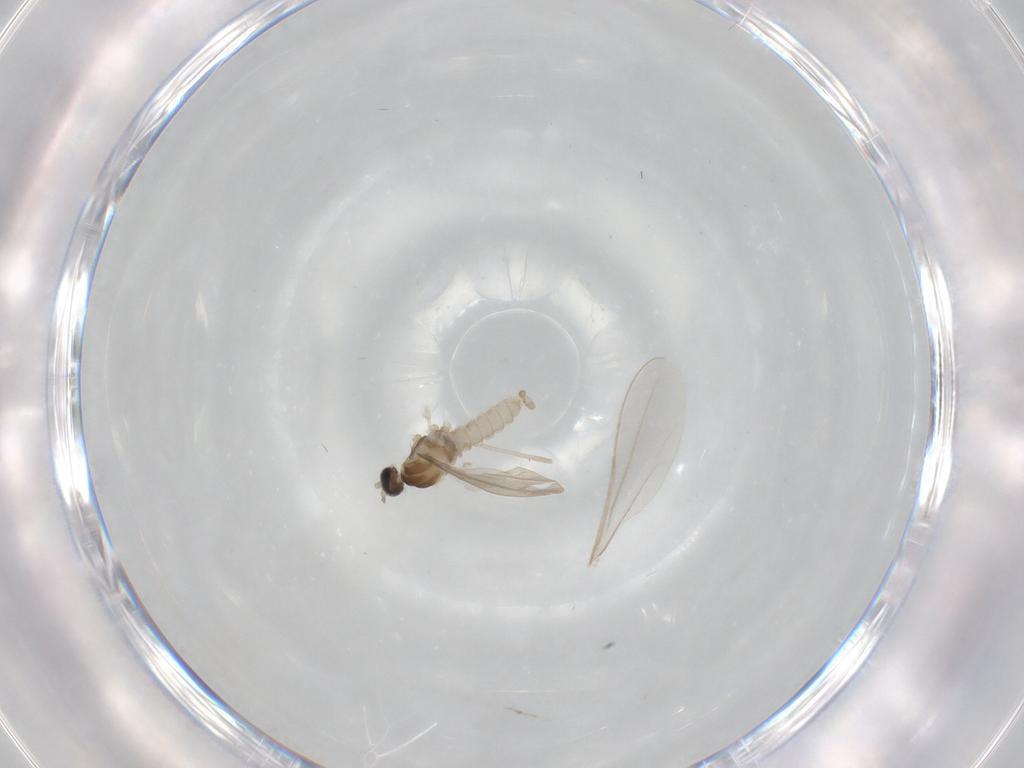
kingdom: Animalia
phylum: Arthropoda
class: Insecta
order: Diptera
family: Cecidomyiidae
